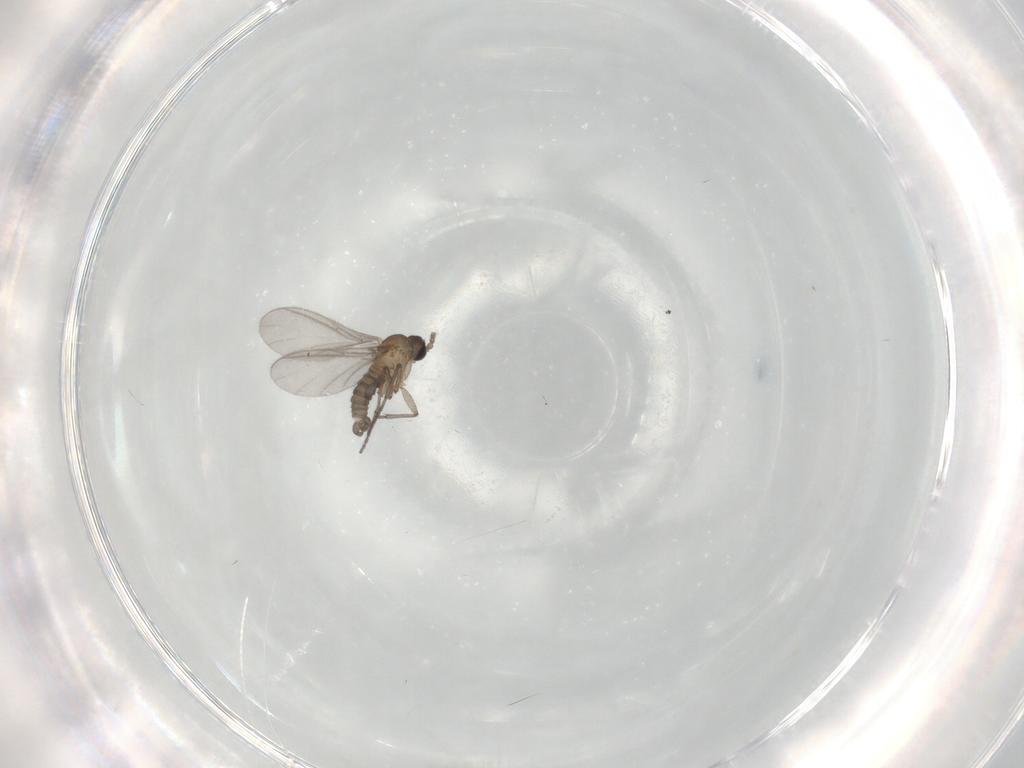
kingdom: Animalia
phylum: Arthropoda
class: Insecta
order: Diptera
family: Sciaridae
